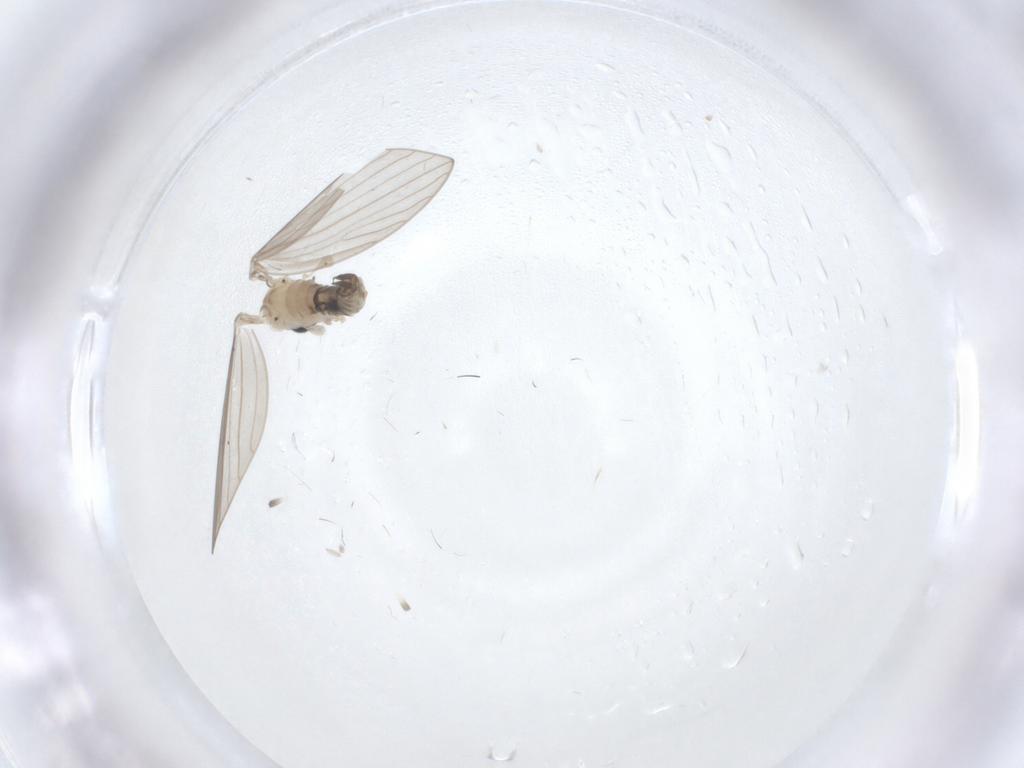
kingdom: Animalia
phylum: Arthropoda
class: Insecta
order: Diptera
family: Psychodidae
